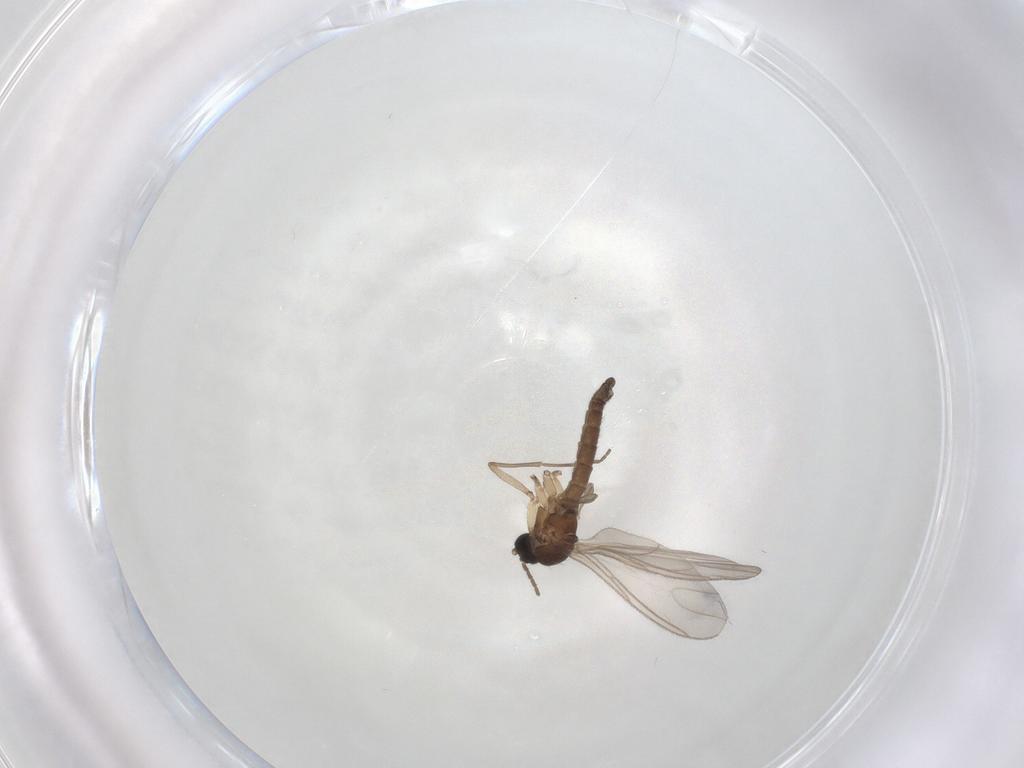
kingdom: Animalia
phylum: Arthropoda
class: Insecta
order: Diptera
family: Sciaridae
